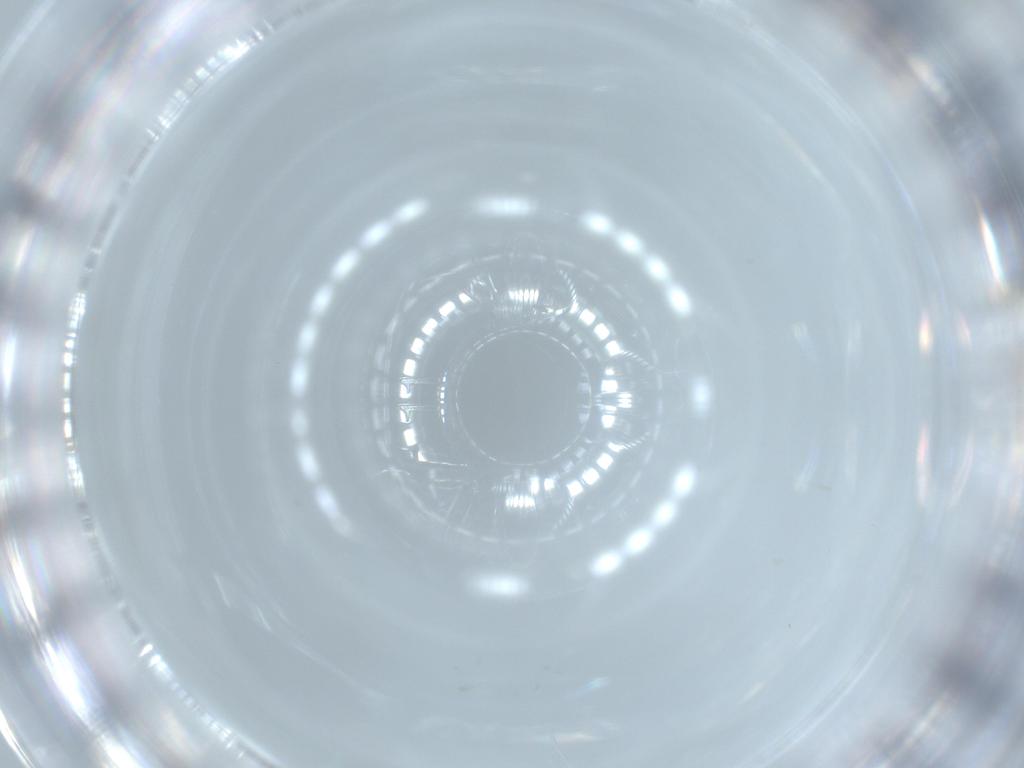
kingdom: Animalia
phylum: Arthropoda
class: Insecta
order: Diptera
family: Cecidomyiidae
